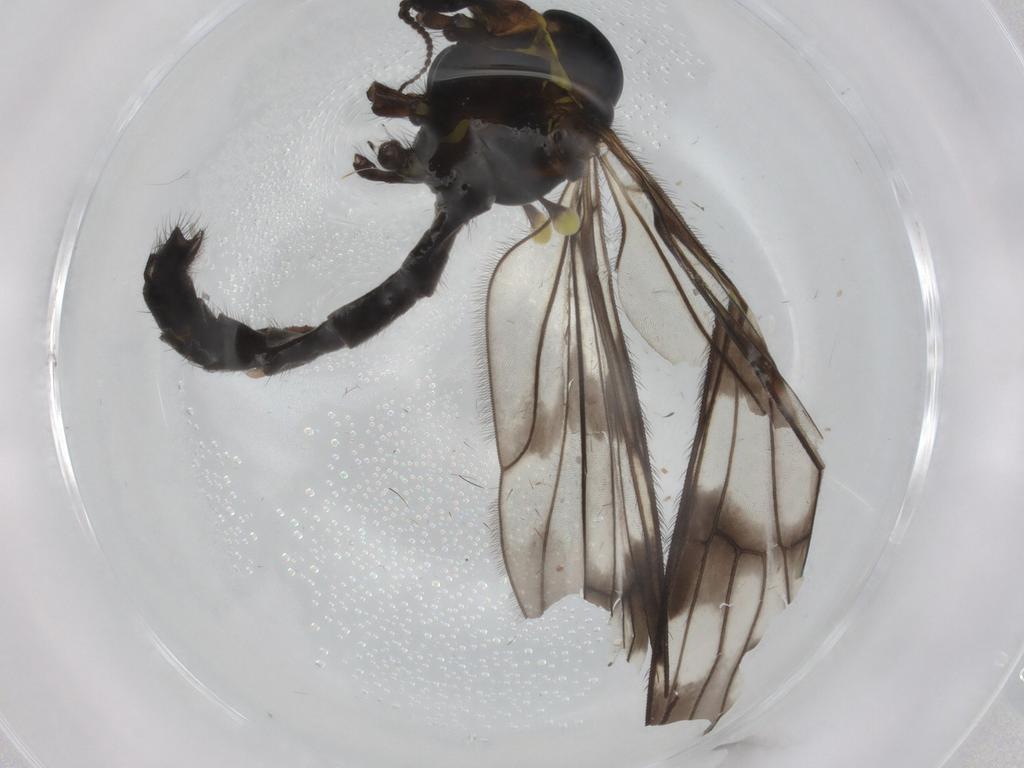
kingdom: Animalia
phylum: Arthropoda
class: Insecta
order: Diptera
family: Limoniidae
